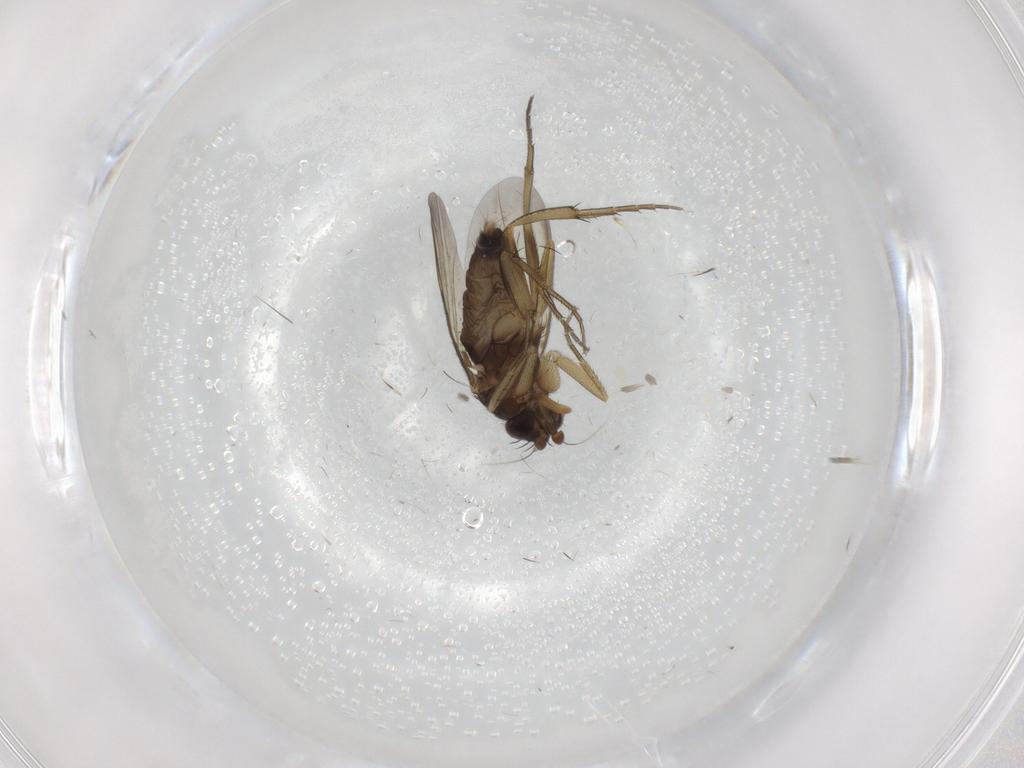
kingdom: Animalia
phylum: Arthropoda
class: Insecta
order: Diptera
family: Phoridae
